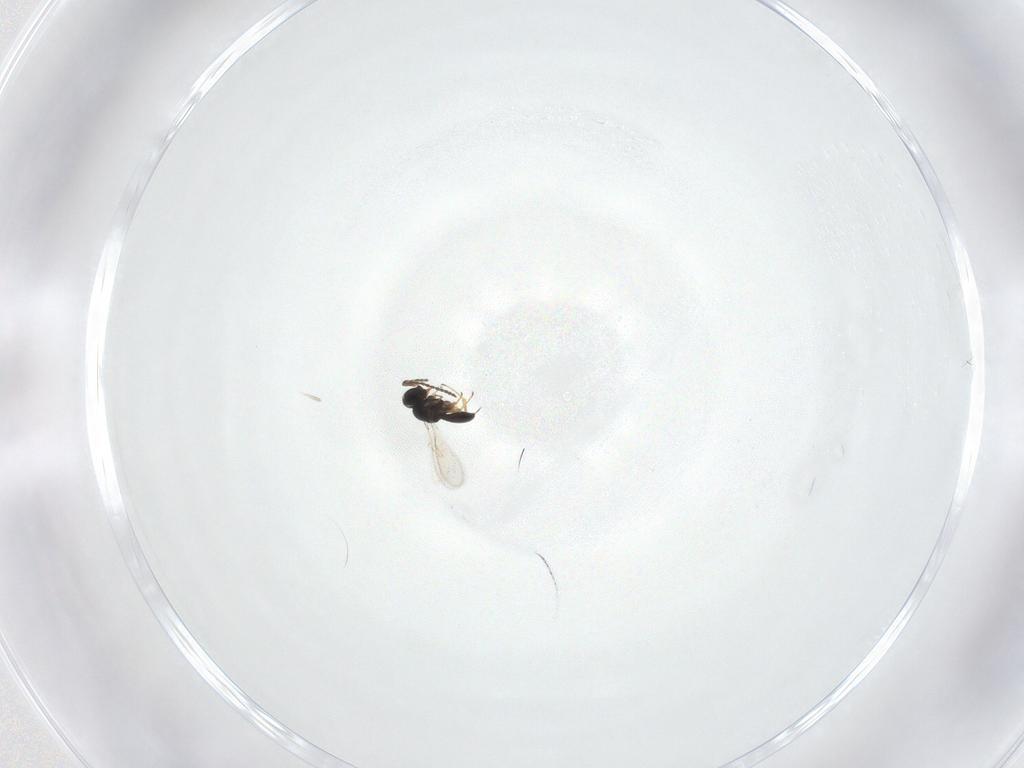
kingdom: Animalia
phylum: Arthropoda
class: Insecta
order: Hymenoptera
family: Scelionidae
